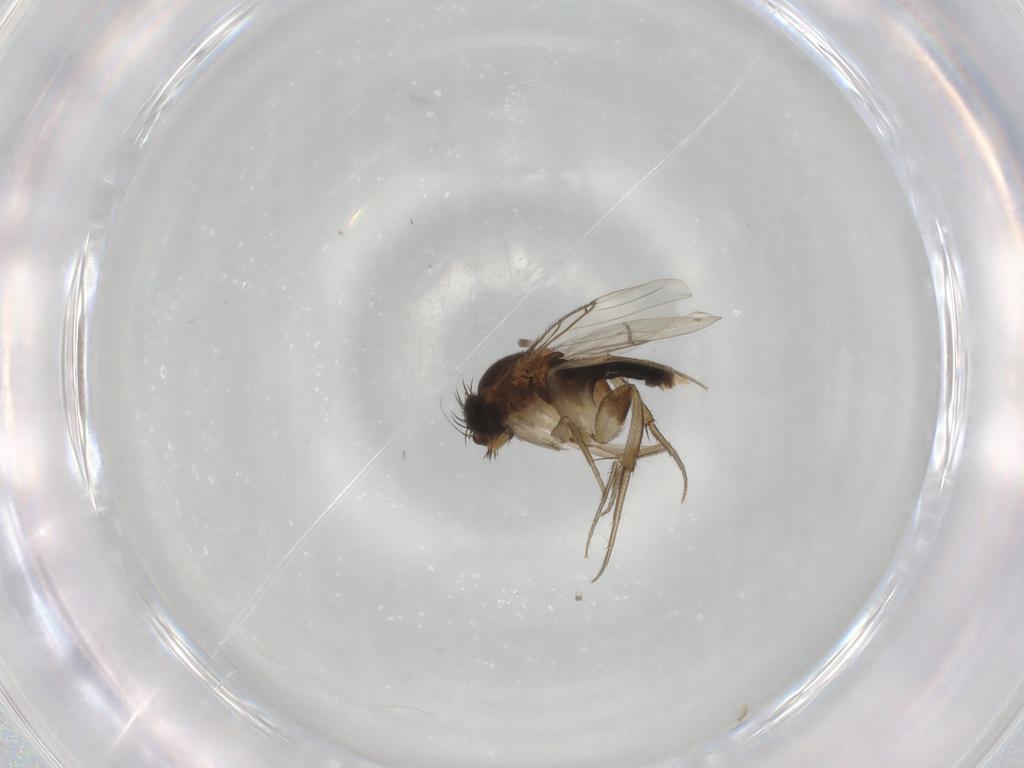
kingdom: Animalia
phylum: Arthropoda
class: Insecta
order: Diptera
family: Phoridae
